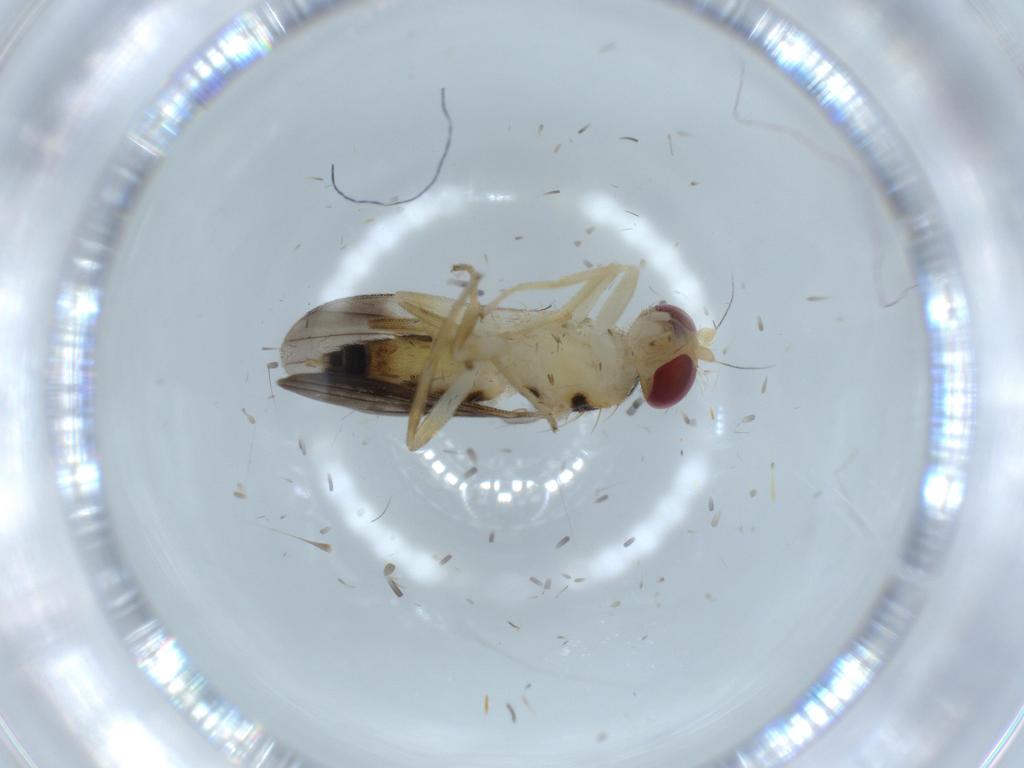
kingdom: Animalia
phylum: Arthropoda
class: Insecta
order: Diptera
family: Clusiidae
